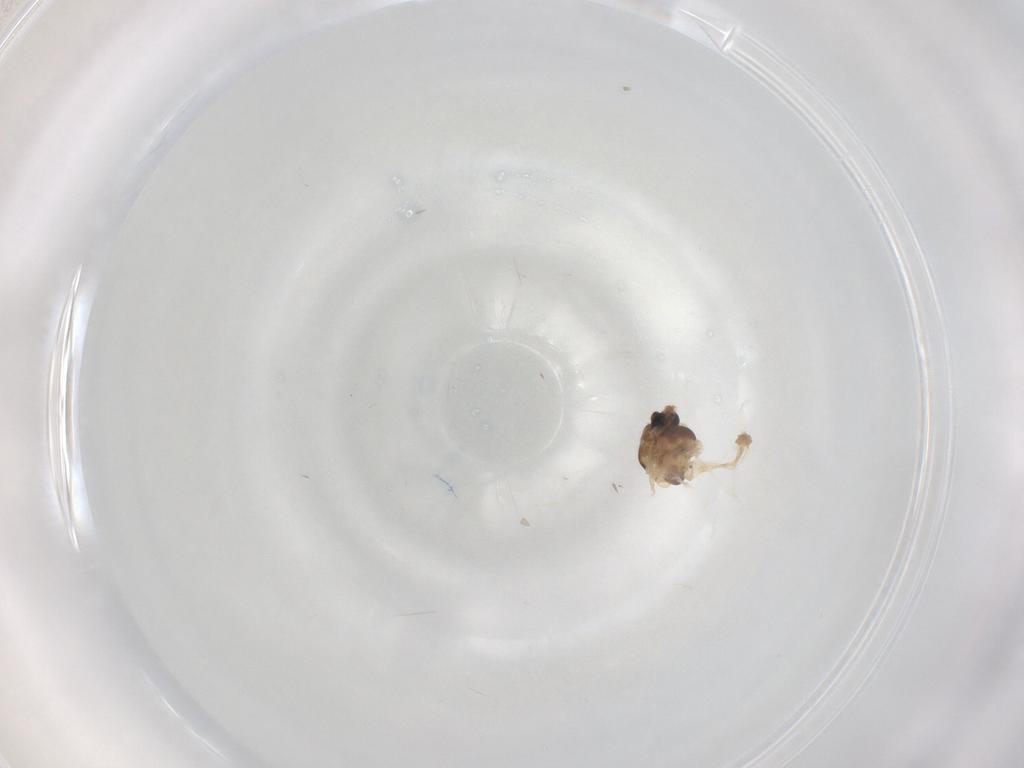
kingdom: Animalia
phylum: Arthropoda
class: Insecta
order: Diptera
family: Muscidae
